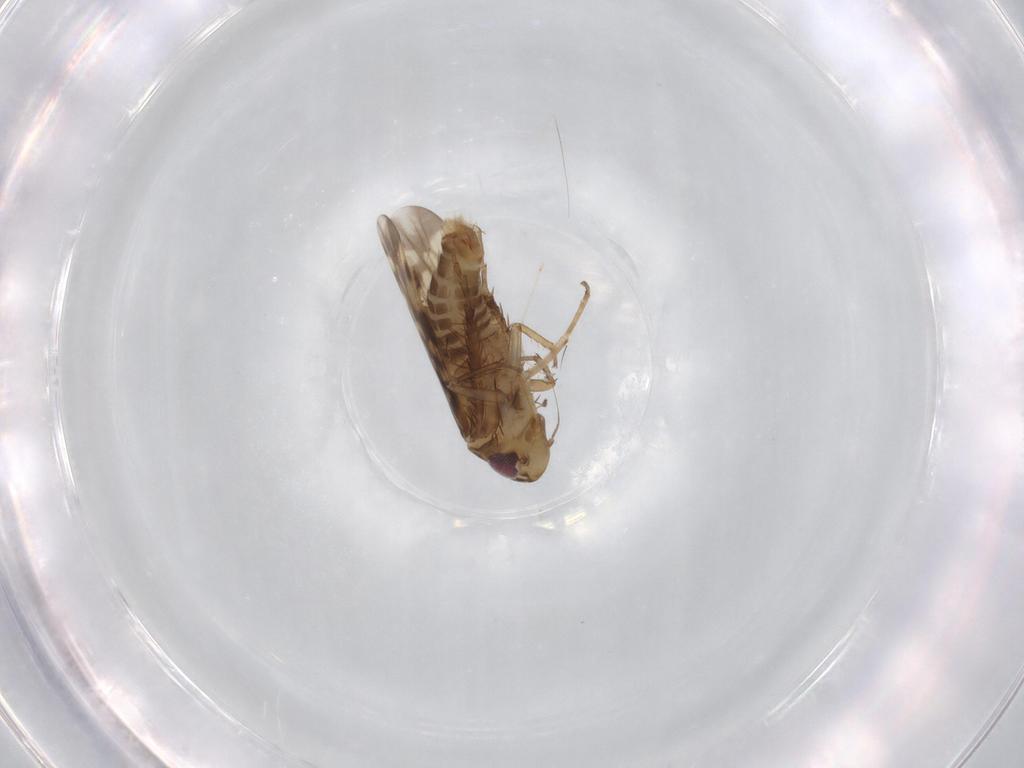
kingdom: Animalia
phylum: Arthropoda
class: Insecta
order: Hemiptera
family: Cicadellidae
